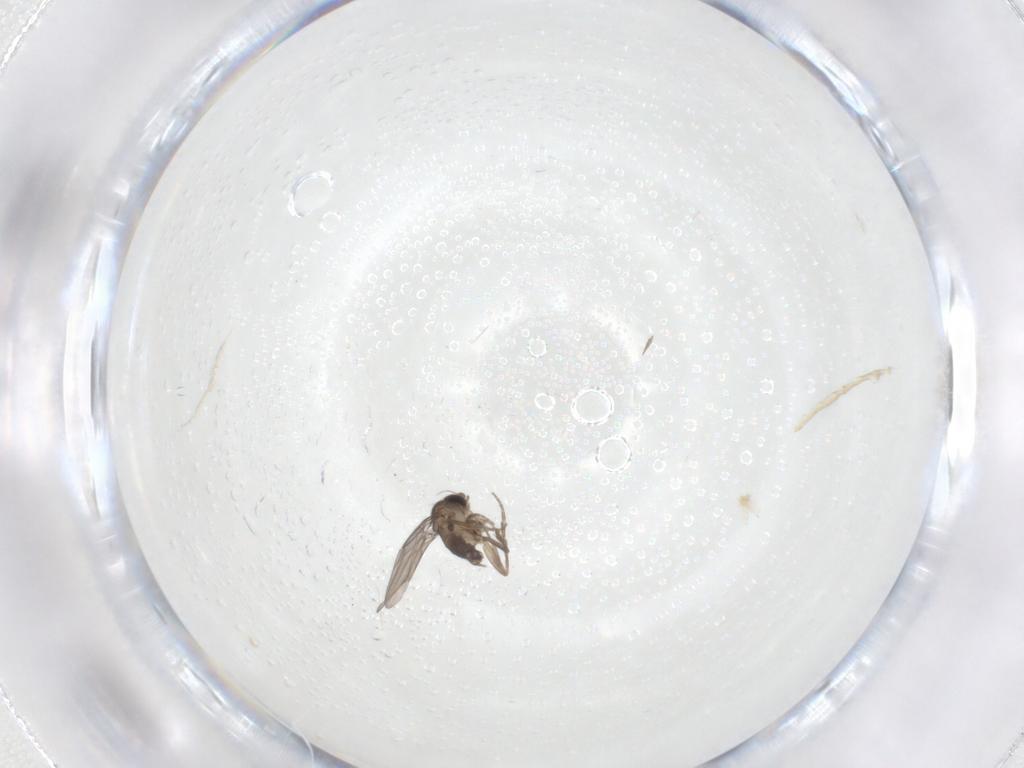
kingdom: Animalia
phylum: Arthropoda
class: Insecta
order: Diptera
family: Phoridae
